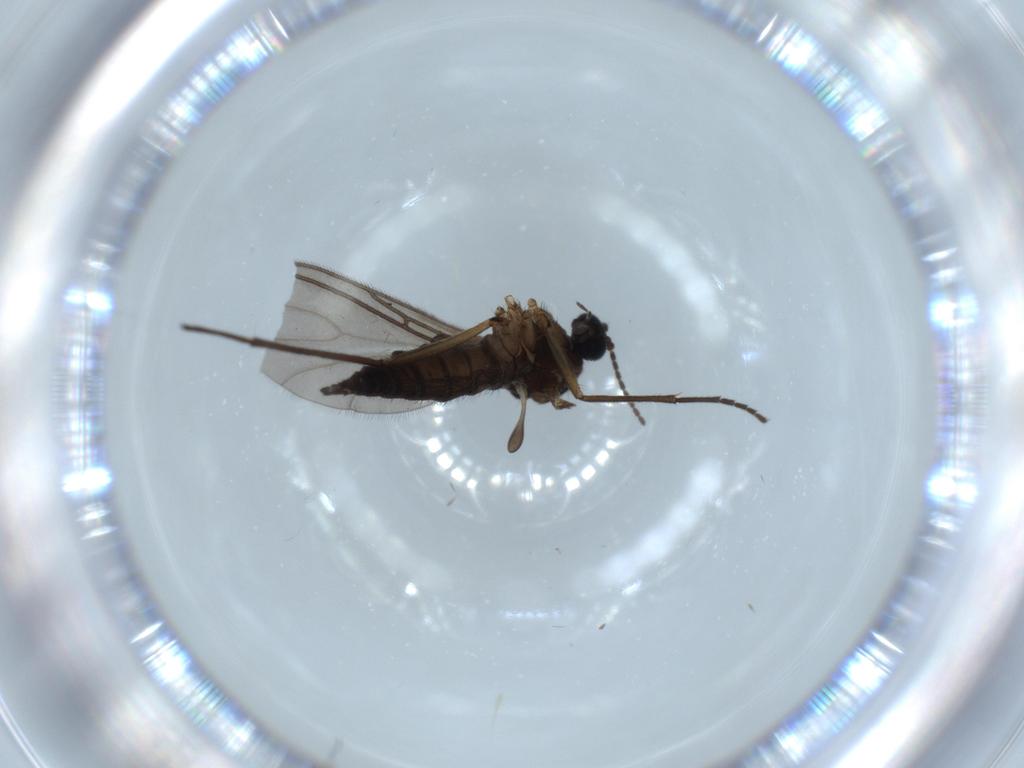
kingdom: Animalia
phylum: Arthropoda
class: Insecta
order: Diptera
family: Sciaridae
